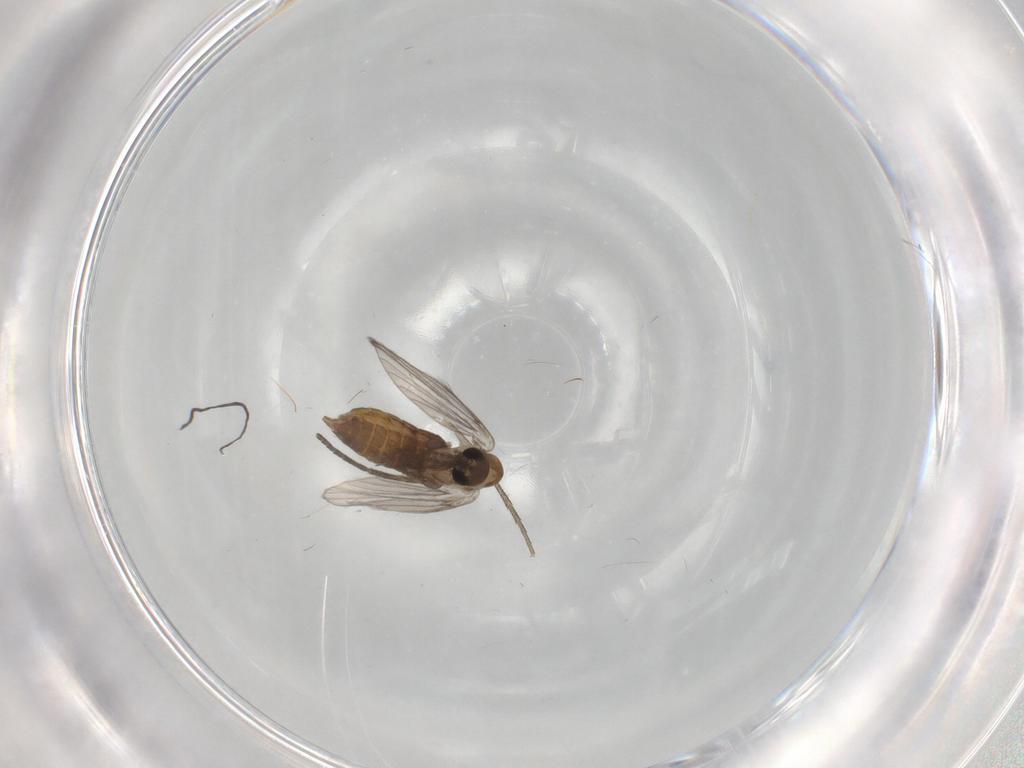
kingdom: Animalia
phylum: Arthropoda
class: Insecta
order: Diptera
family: Psychodidae
